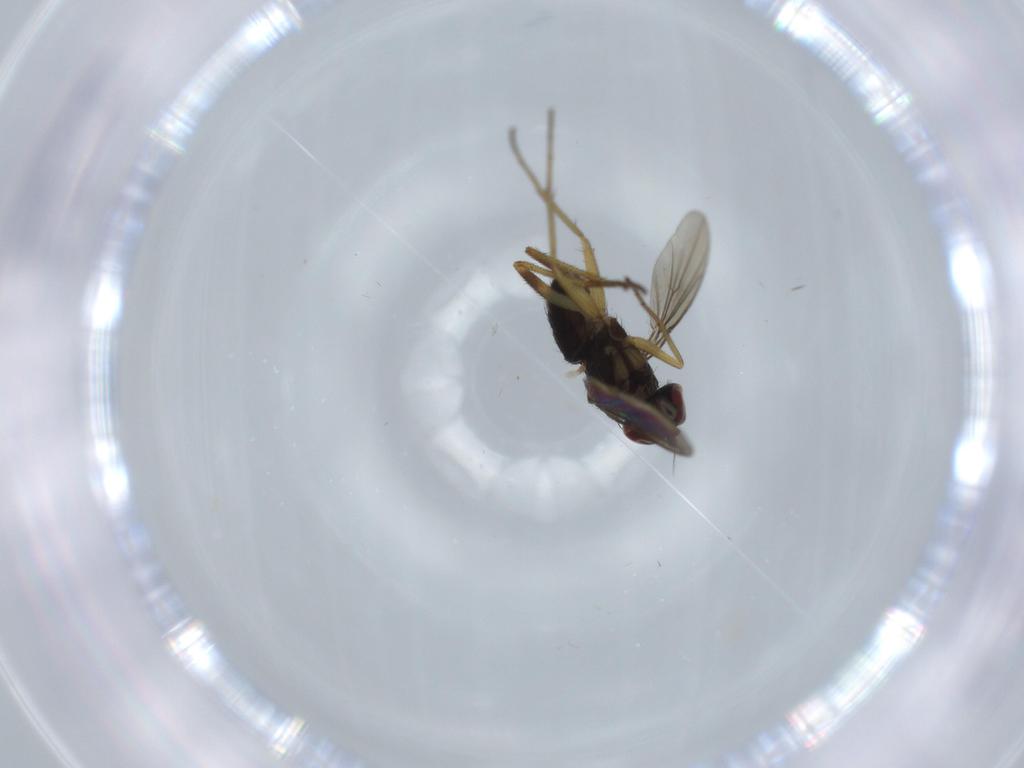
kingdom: Animalia
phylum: Arthropoda
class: Insecta
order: Diptera
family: Dolichopodidae
